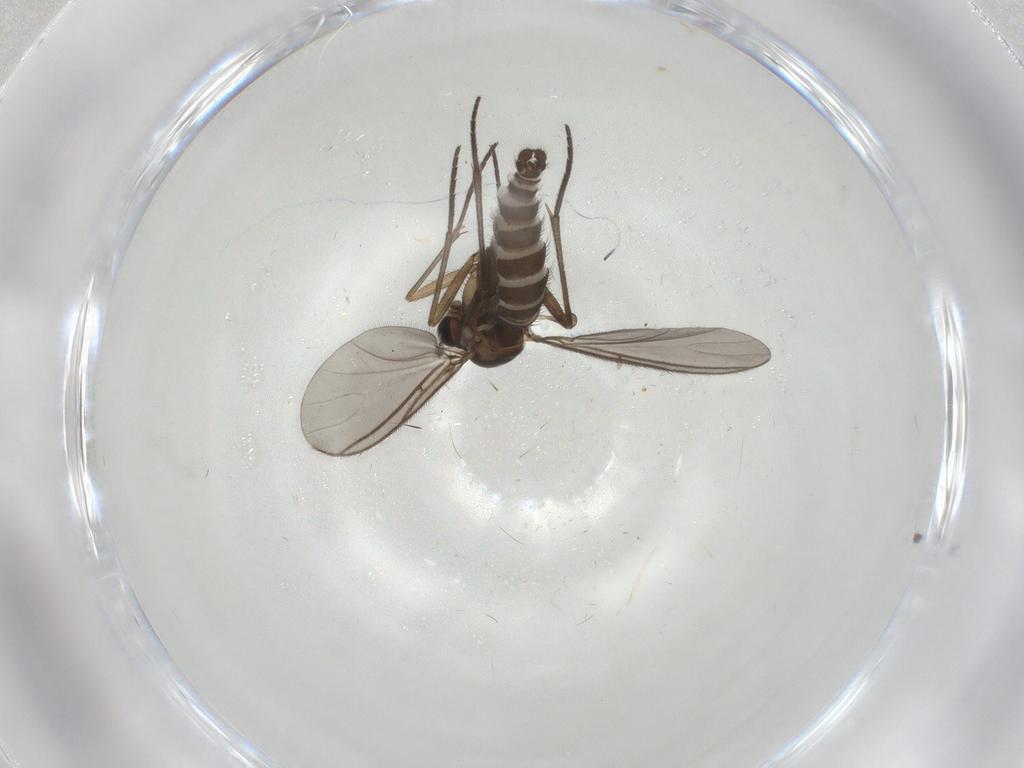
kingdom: Animalia
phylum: Arthropoda
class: Insecta
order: Diptera
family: Sciaridae
